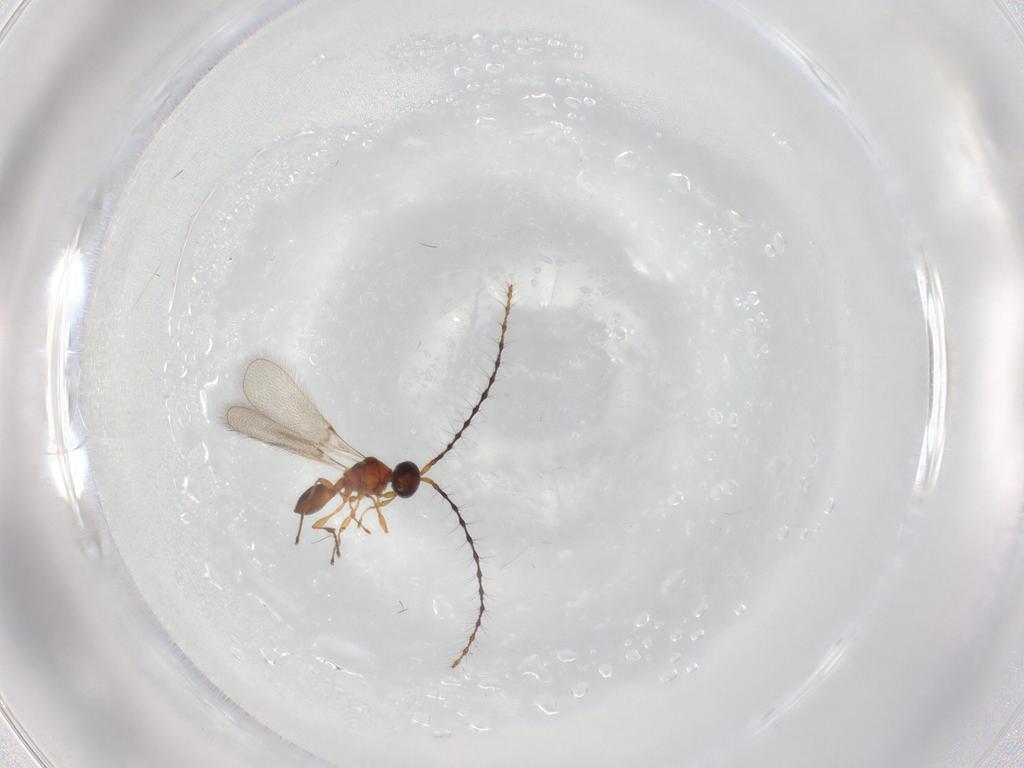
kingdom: Animalia
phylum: Arthropoda
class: Insecta
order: Hymenoptera
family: Diapriidae
